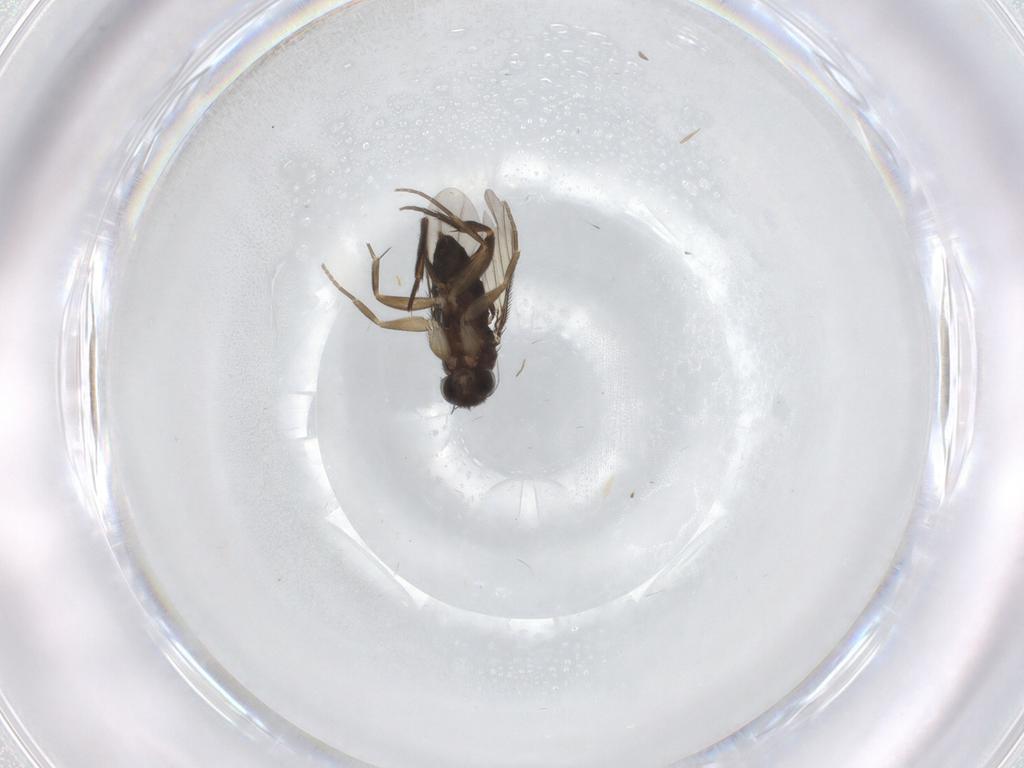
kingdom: Animalia
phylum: Arthropoda
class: Insecta
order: Diptera
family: Phoridae
